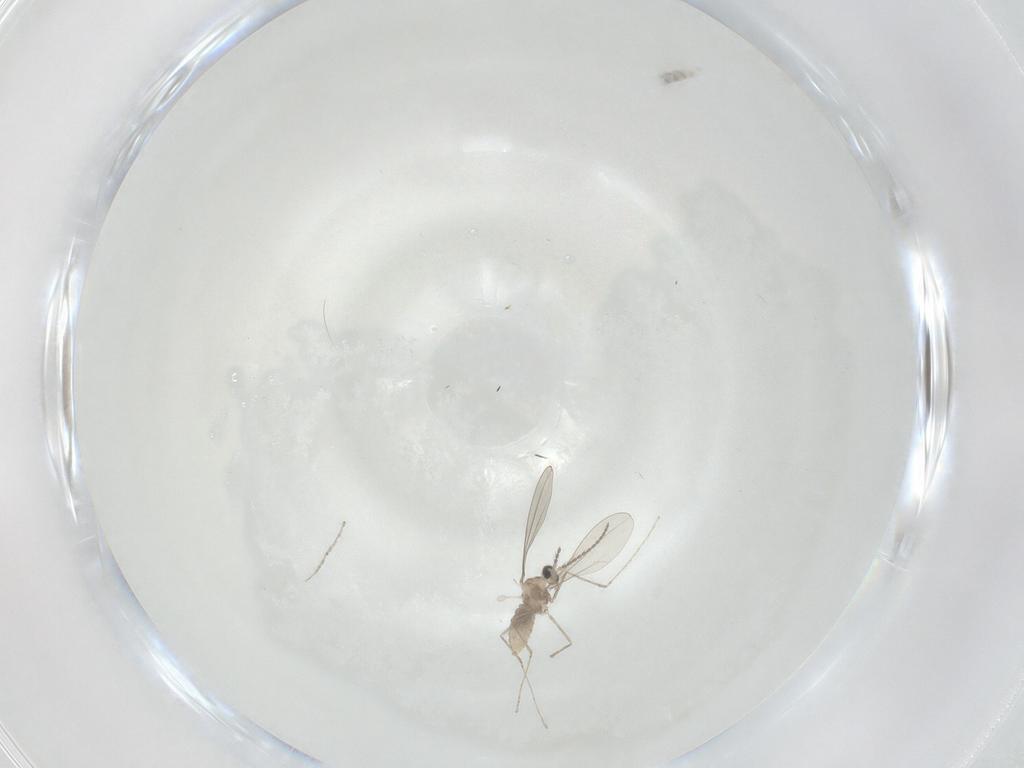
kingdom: Animalia
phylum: Arthropoda
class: Insecta
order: Diptera
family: Cecidomyiidae
